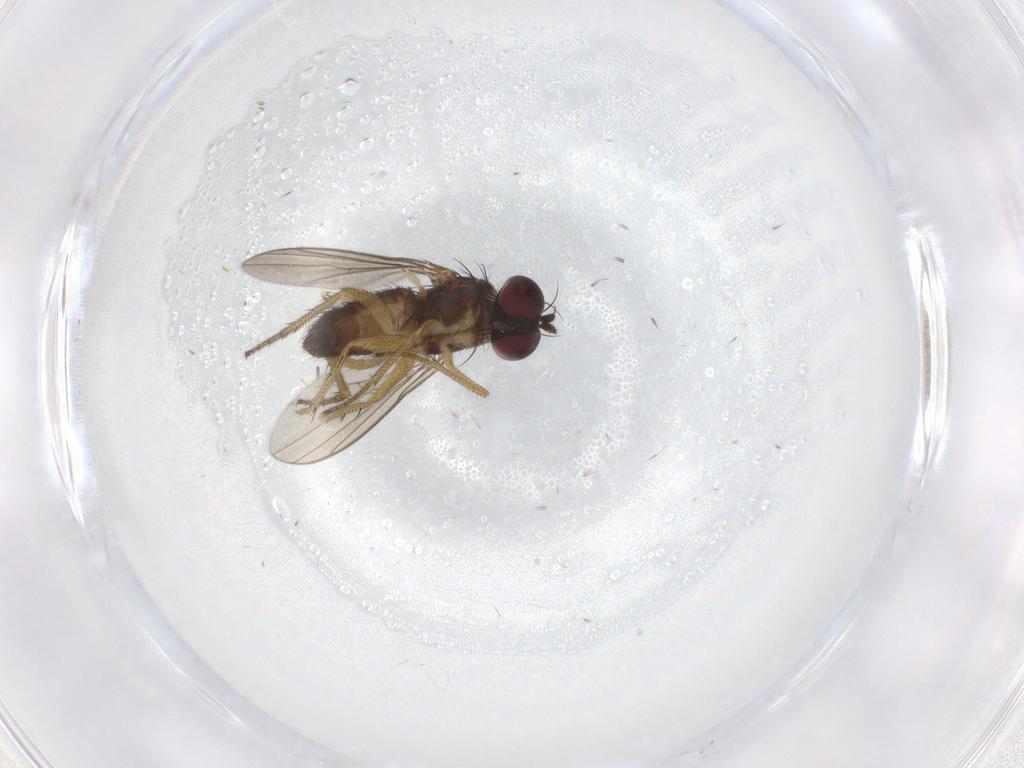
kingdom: Animalia
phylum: Arthropoda
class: Insecta
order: Diptera
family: Dolichopodidae
